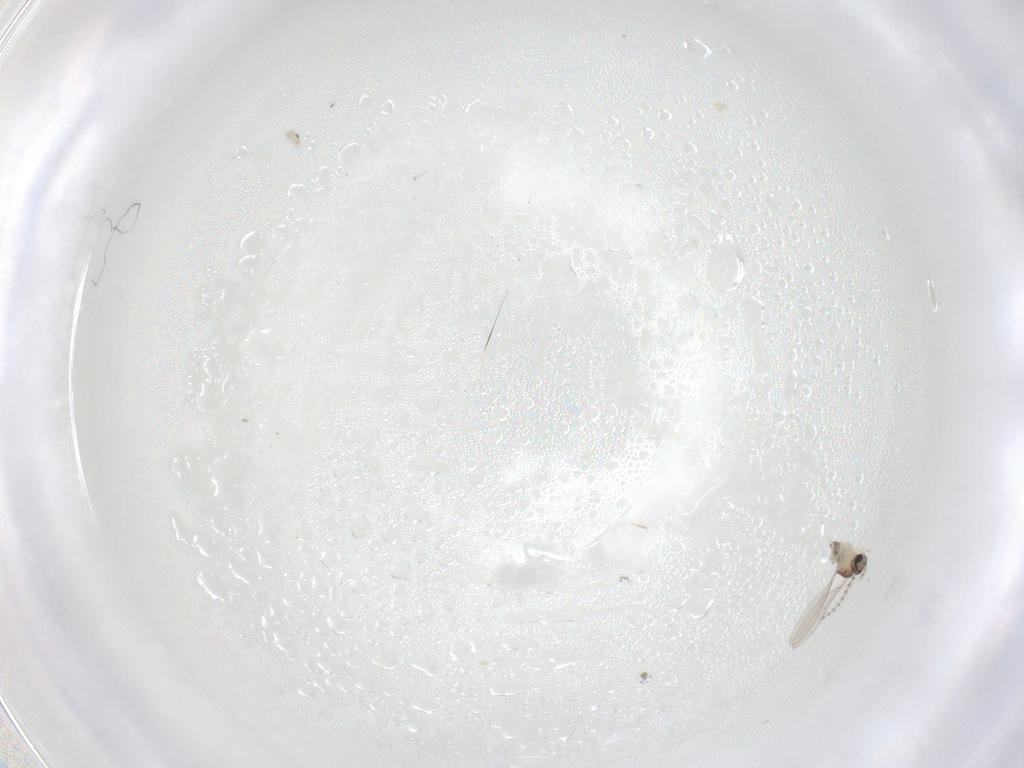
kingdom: Animalia
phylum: Arthropoda
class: Insecta
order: Diptera
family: Cecidomyiidae
